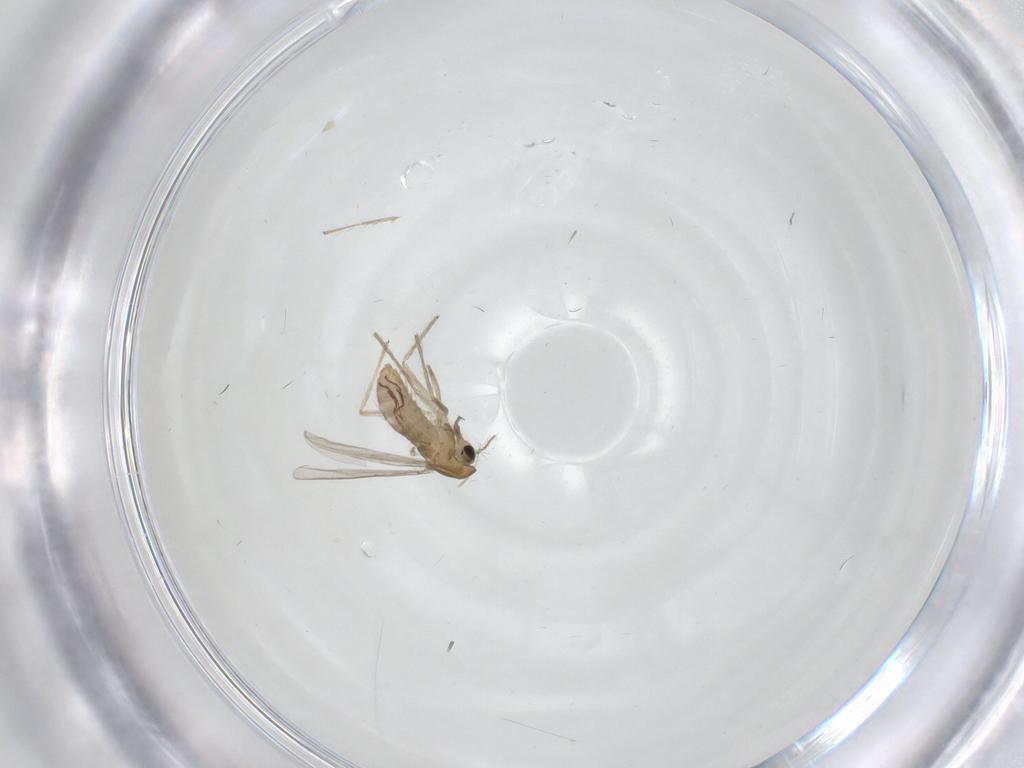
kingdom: Animalia
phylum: Arthropoda
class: Insecta
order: Diptera
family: Chironomidae
